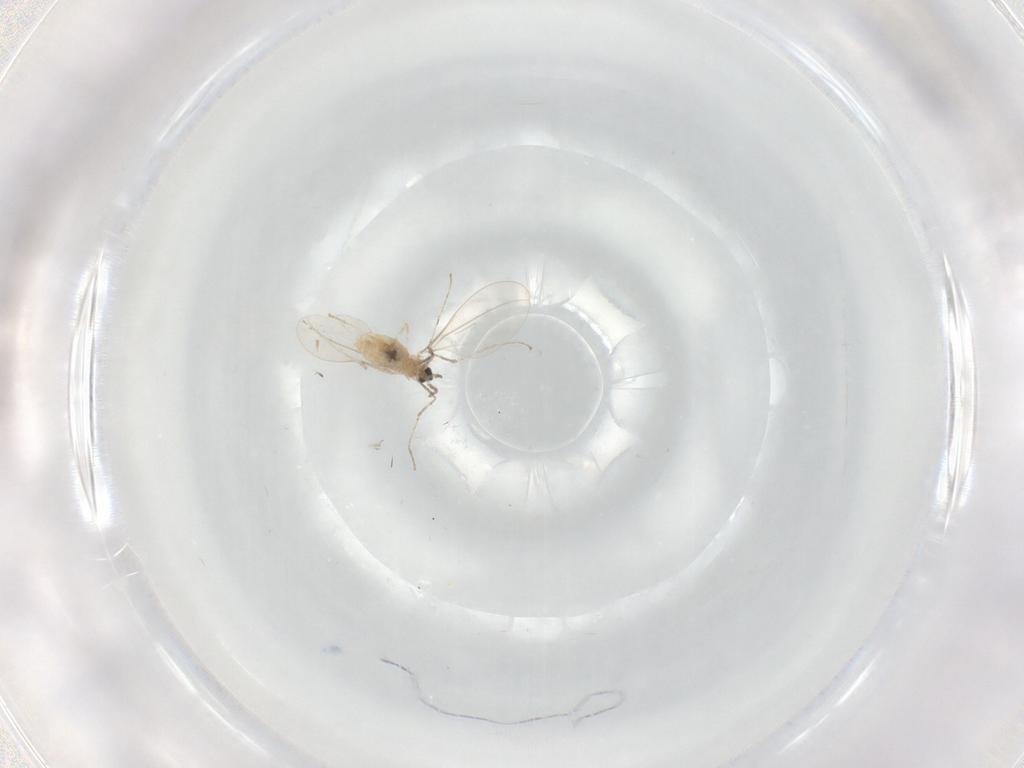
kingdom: Animalia
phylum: Arthropoda
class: Insecta
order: Diptera
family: Cecidomyiidae
